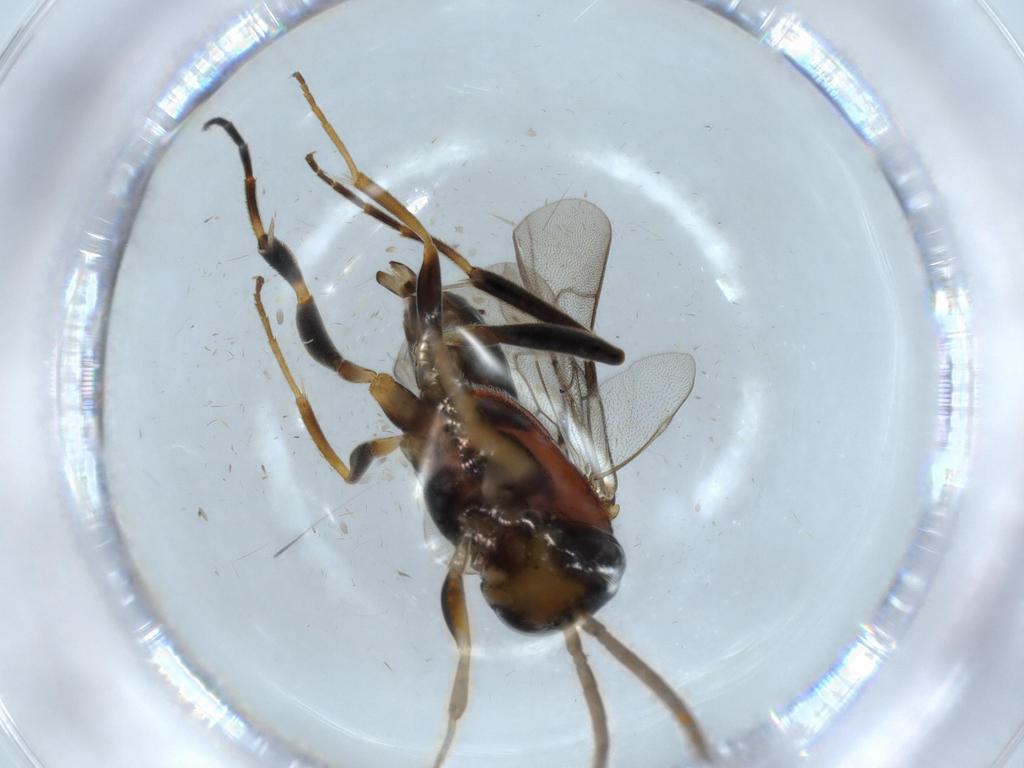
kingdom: Animalia
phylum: Arthropoda
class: Insecta
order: Hymenoptera
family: Evaniidae
